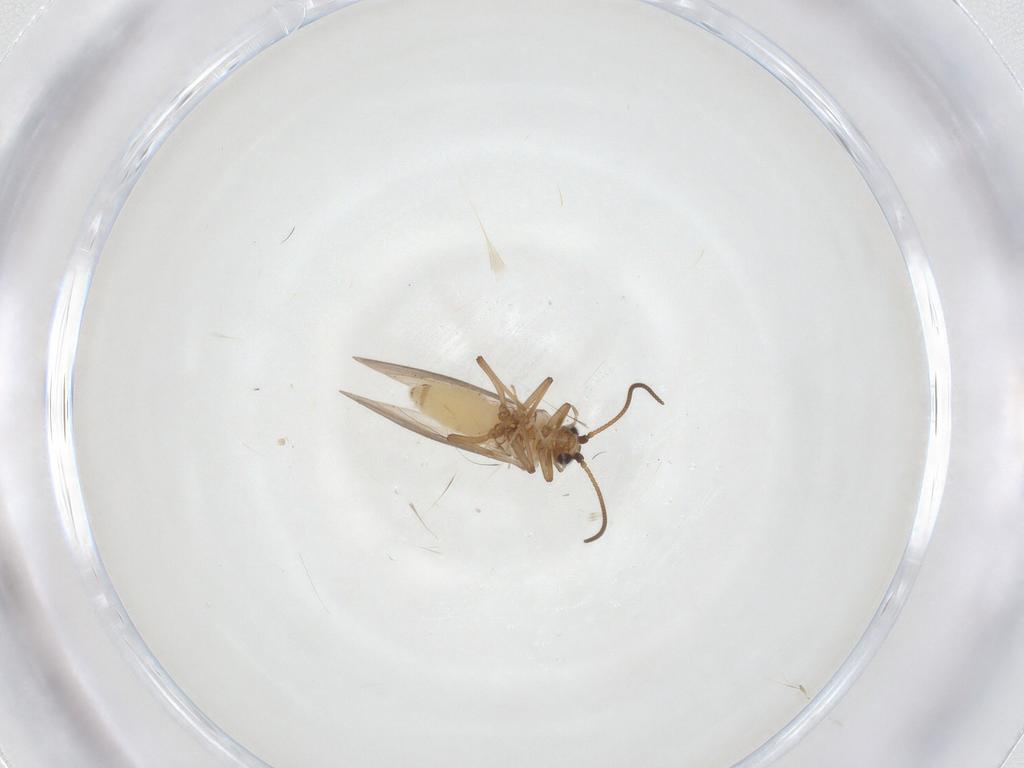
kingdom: Animalia
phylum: Arthropoda
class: Insecta
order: Neuroptera
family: Coniopterygidae
